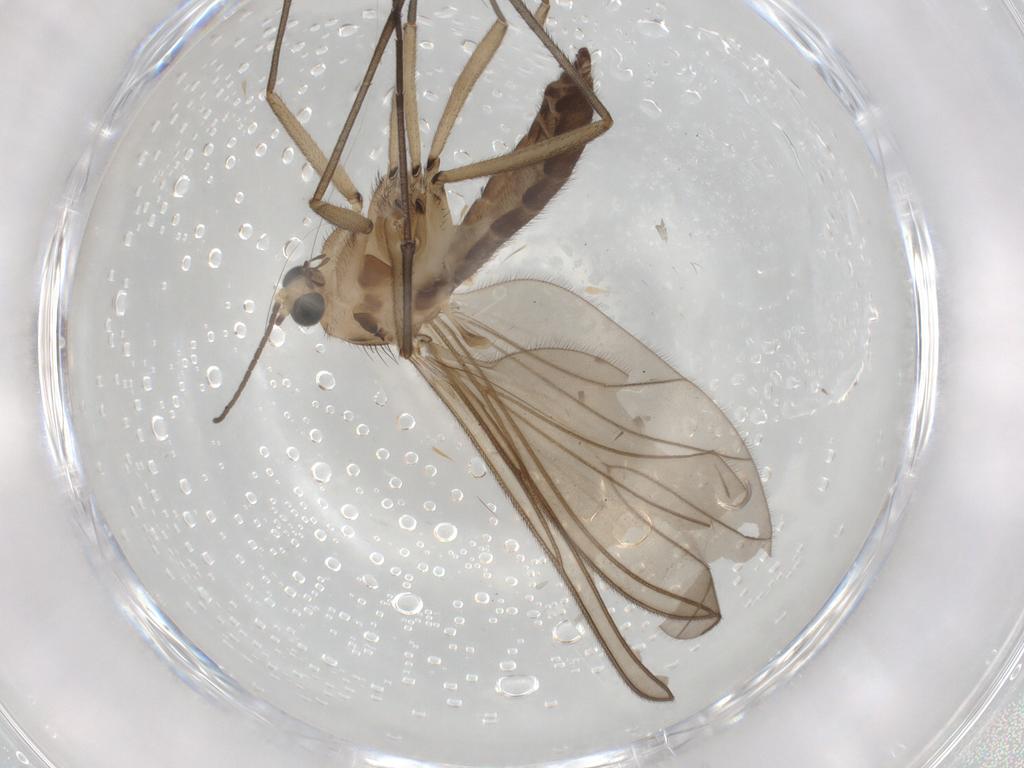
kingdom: Animalia
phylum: Arthropoda
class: Insecta
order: Diptera
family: Sciaridae
